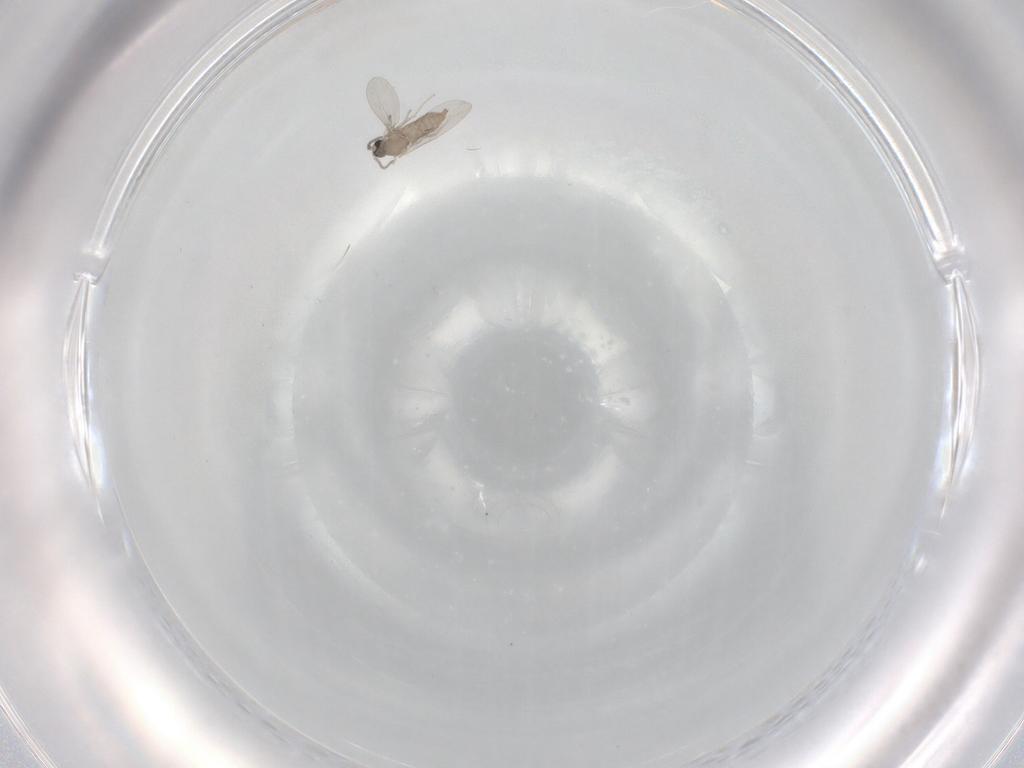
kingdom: Animalia
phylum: Arthropoda
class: Insecta
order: Diptera
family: Cecidomyiidae
